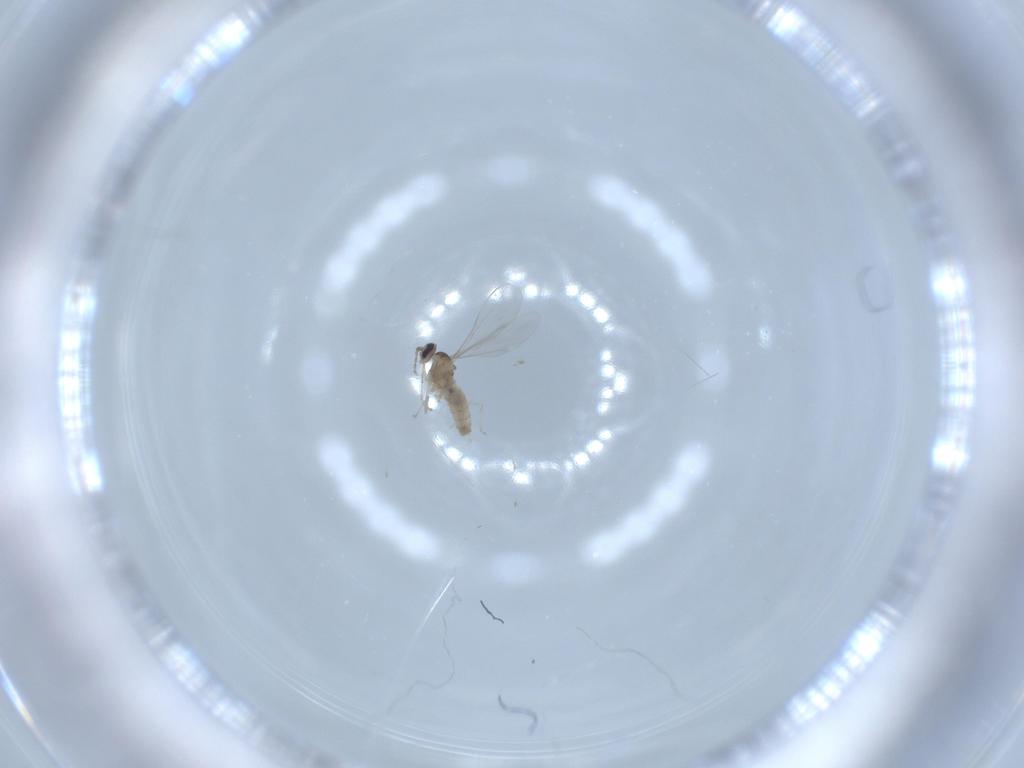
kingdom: Animalia
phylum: Arthropoda
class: Insecta
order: Diptera
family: Cecidomyiidae
